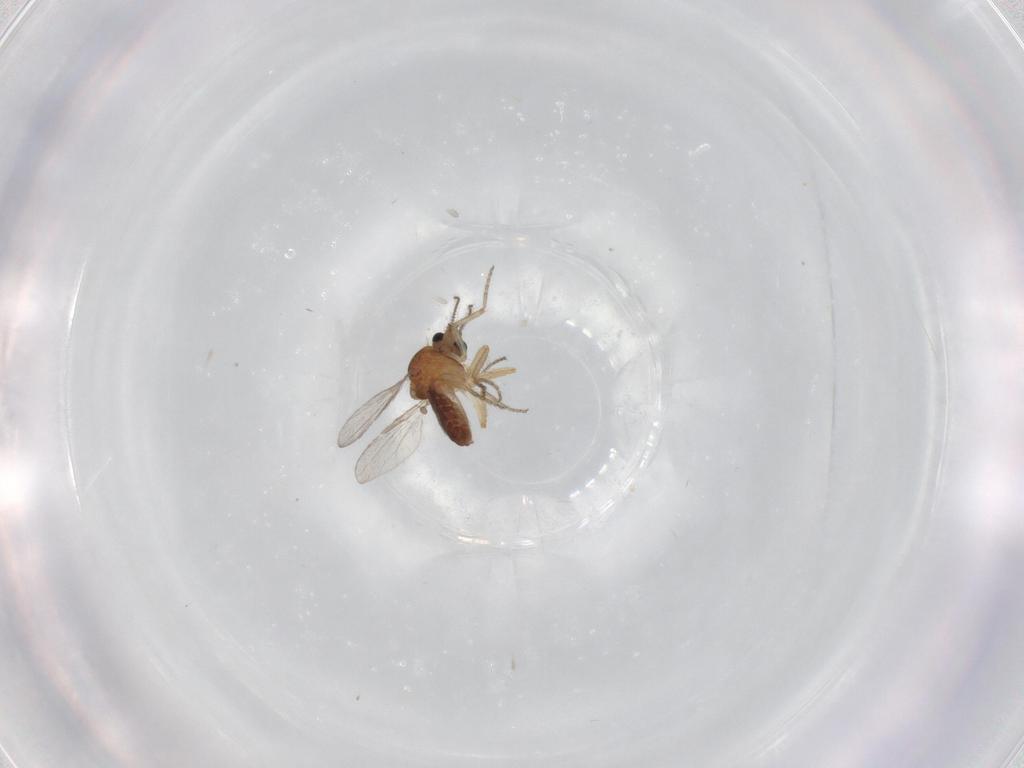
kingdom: Animalia
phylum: Arthropoda
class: Insecta
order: Diptera
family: Ceratopogonidae
